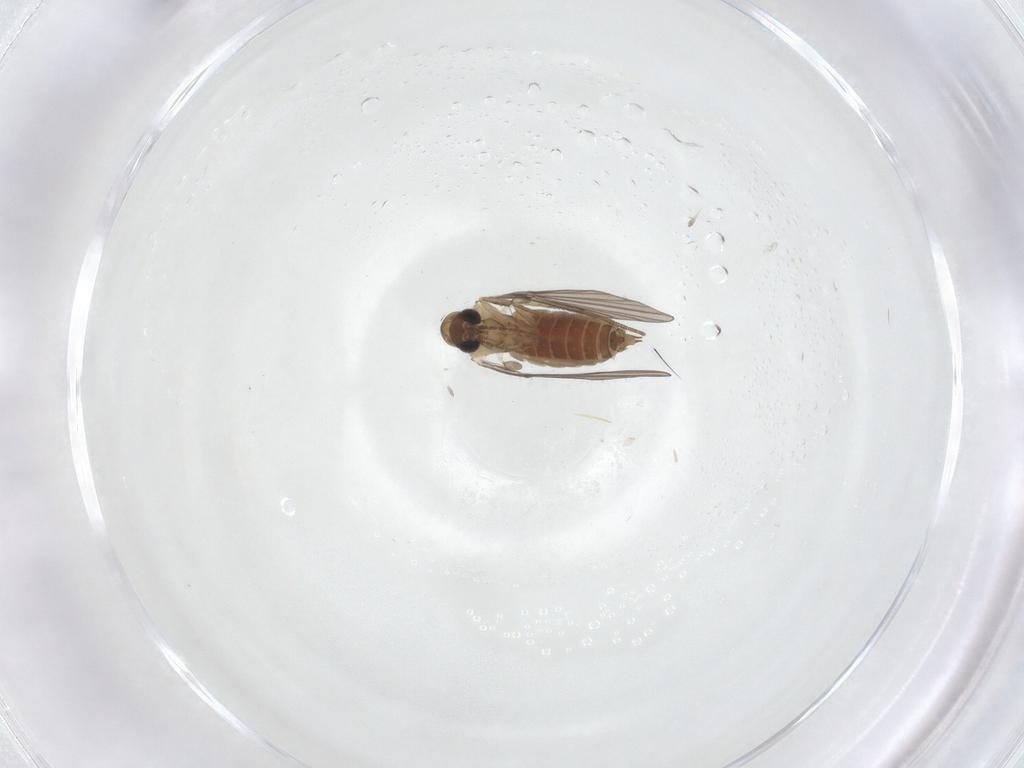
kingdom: Animalia
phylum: Arthropoda
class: Insecta
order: Diptera
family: Psychodidae
